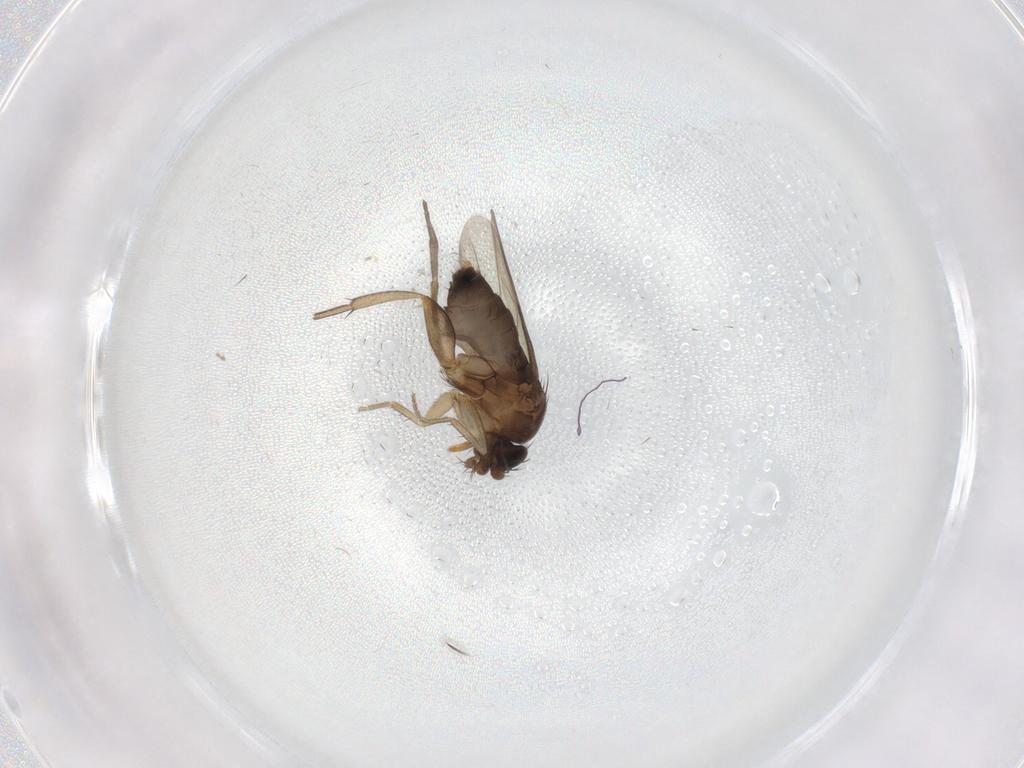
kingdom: Animalia
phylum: Arthropoda
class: Insecta
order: Diptera
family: Phoridae
